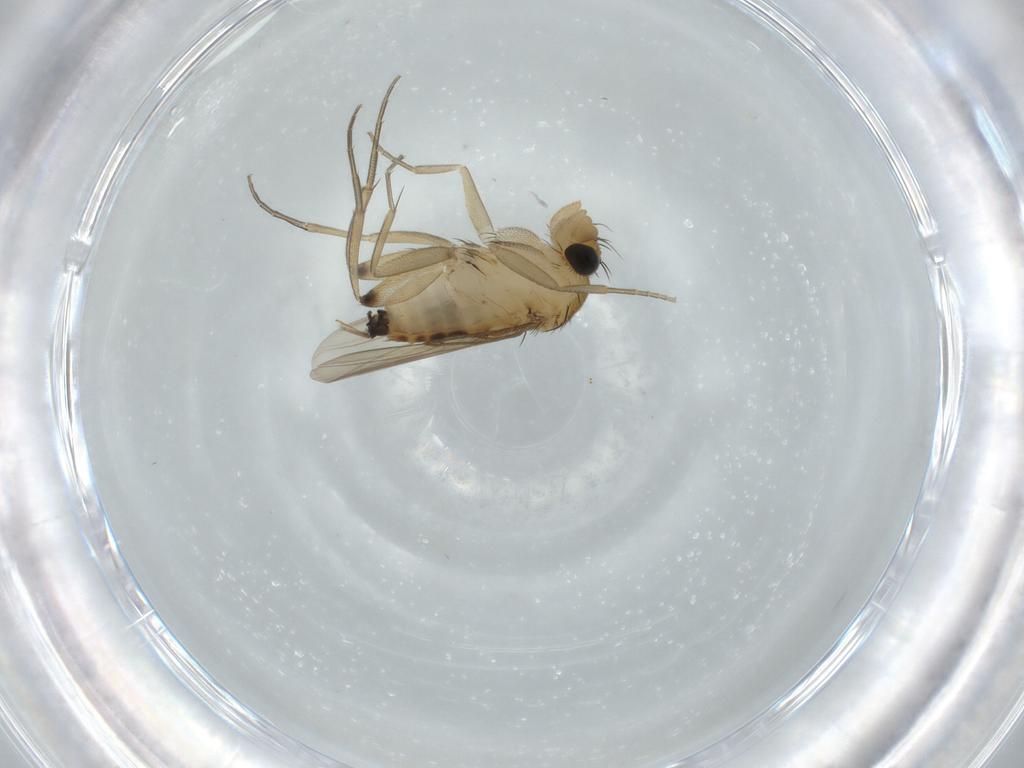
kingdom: Animalia
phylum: Arthropoda
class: Insecta
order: Diptera
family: Phoridae
